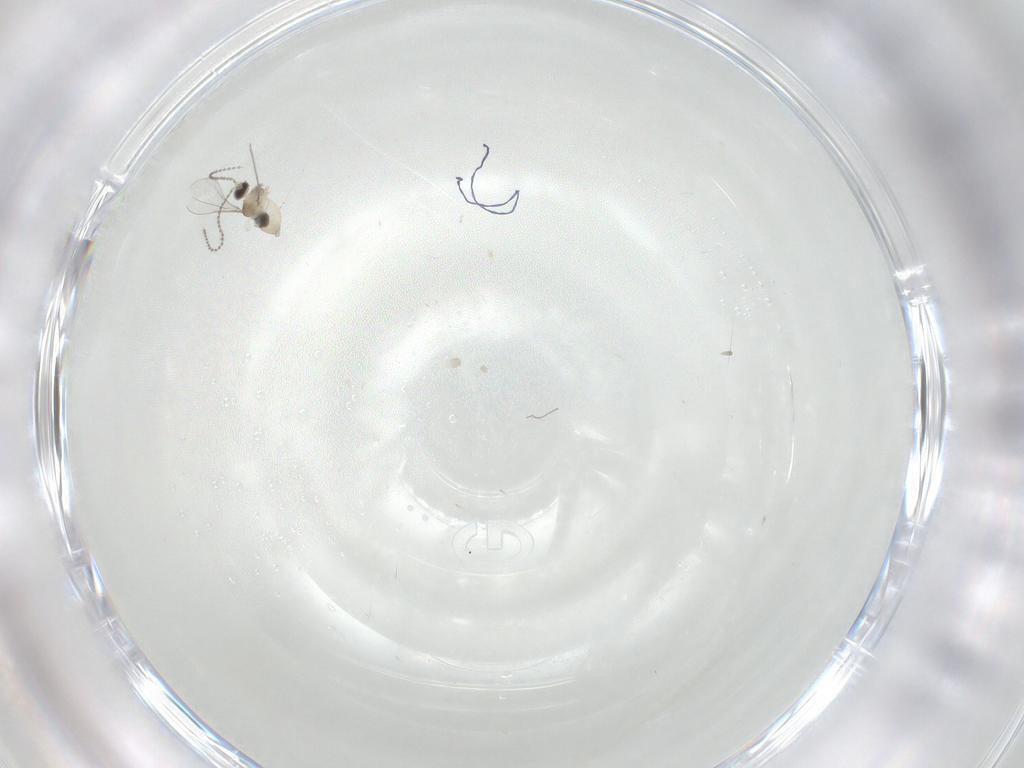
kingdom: Animalia
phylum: Arthropoda
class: Insecta
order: Diptera
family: Cecidomyiidae
